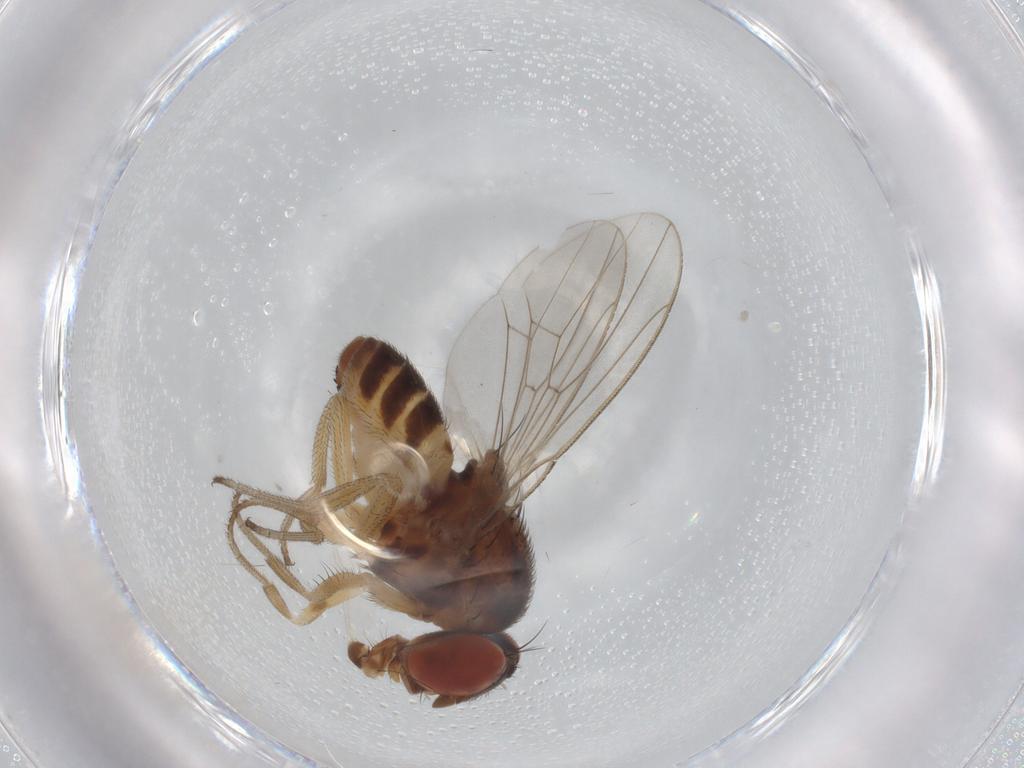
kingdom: Animalia
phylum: Arthropoda
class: Insecta
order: Diptera
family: Drosophilidae
